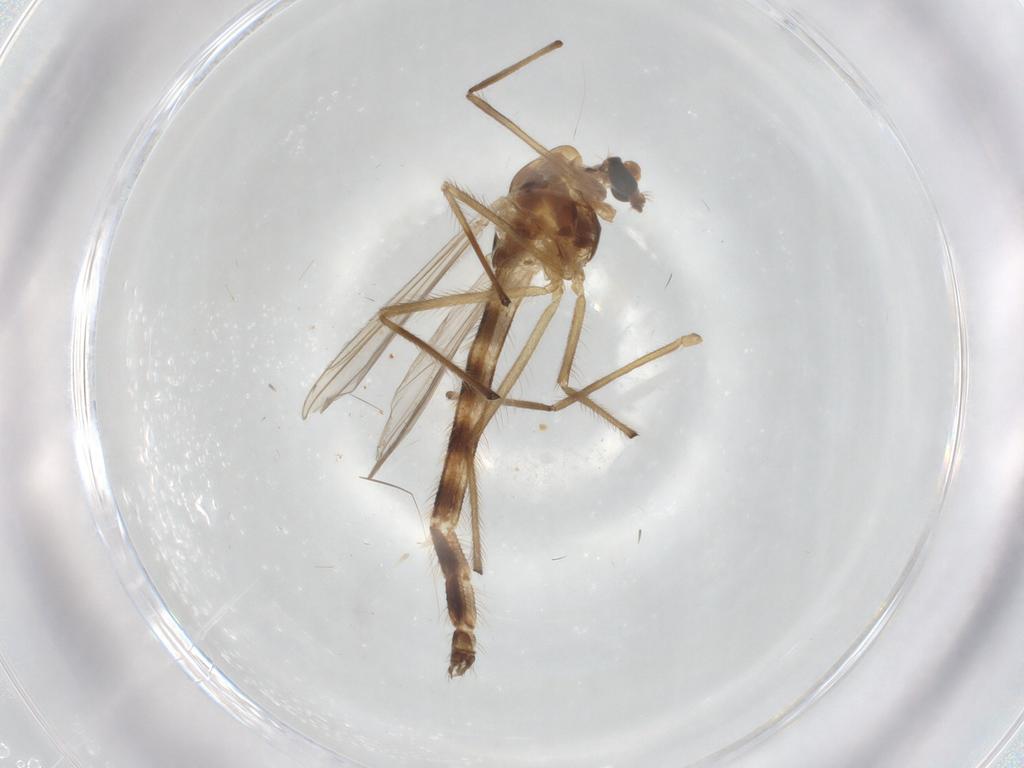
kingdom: Animalia
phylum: Arthropoda
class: Insecta
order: Diptera
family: Chironomidae
